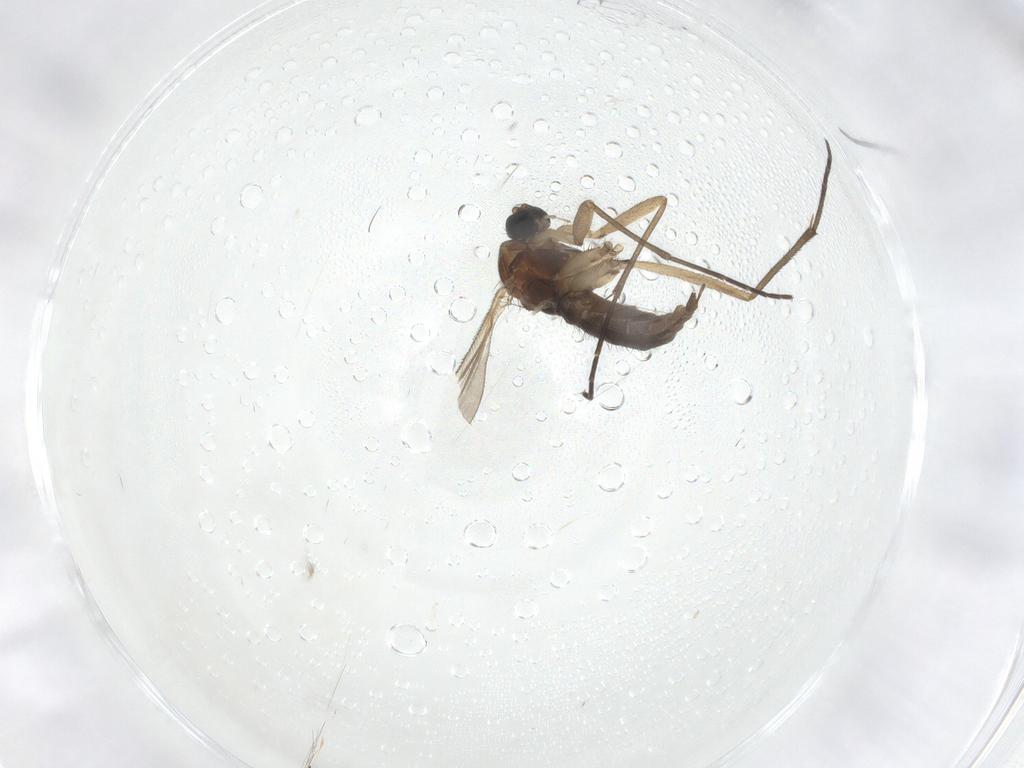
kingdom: Animalia
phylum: Arthropoda
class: Insecta
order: Diptera
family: Sciaridae
